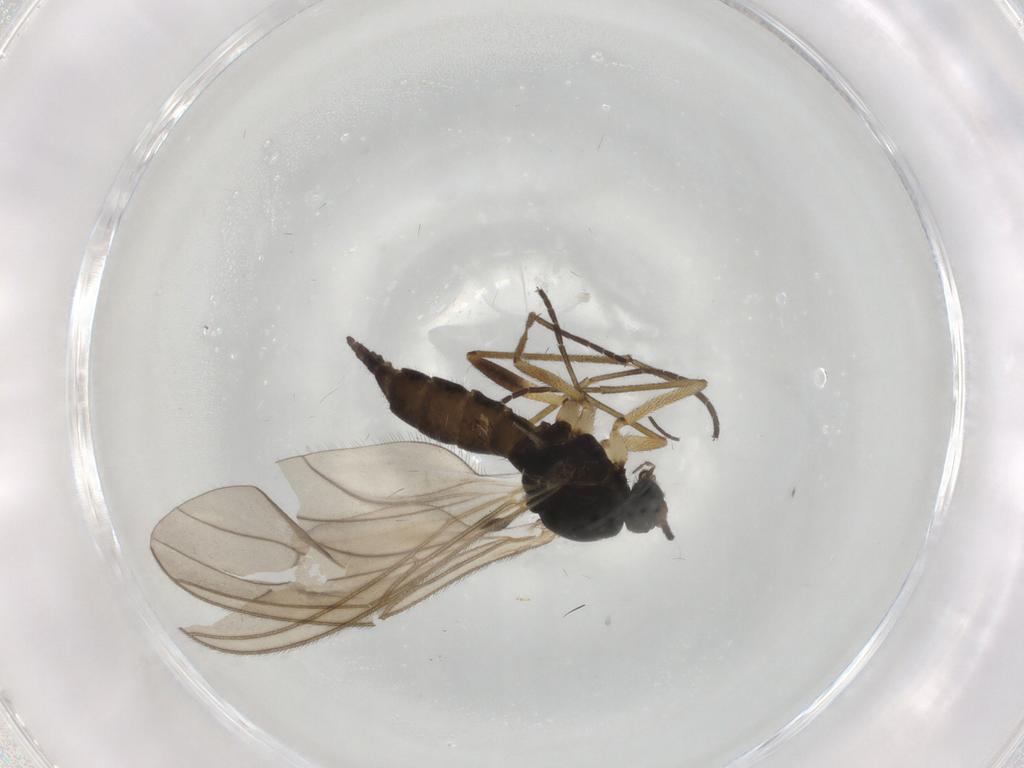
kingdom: Animalia
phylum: Arthropoda
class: Insecta
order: Diptera
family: Sciaridae
